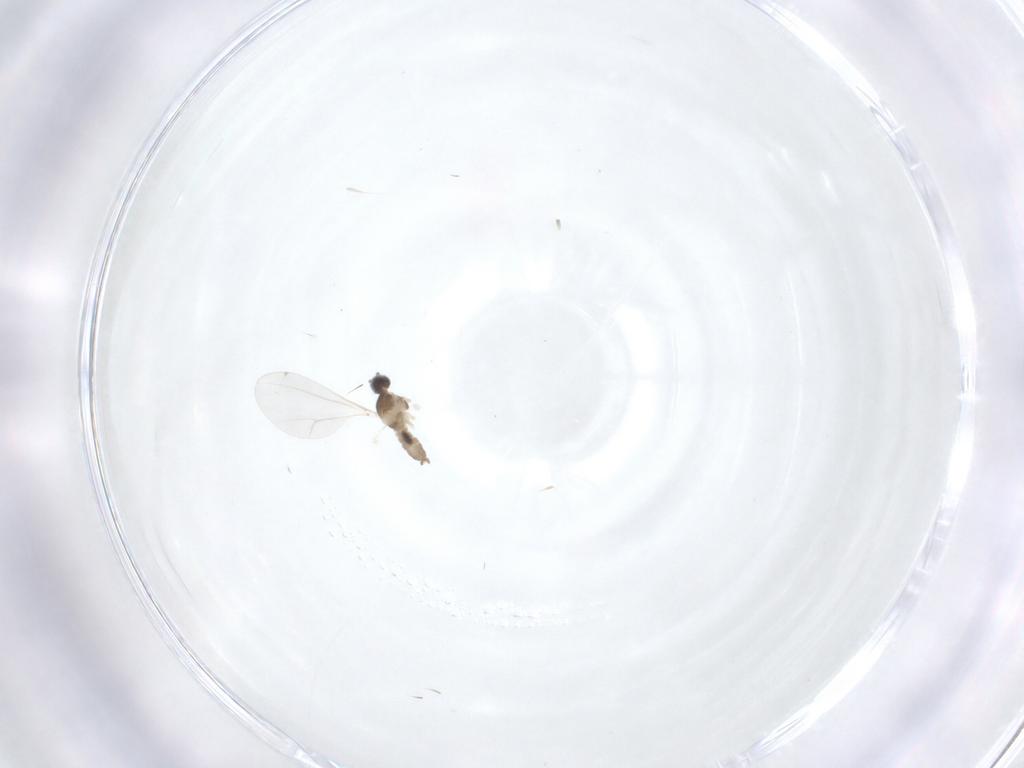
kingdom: Animalia
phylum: Arthropoda
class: Insecta
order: Diptera
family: Cecidomyiidae
